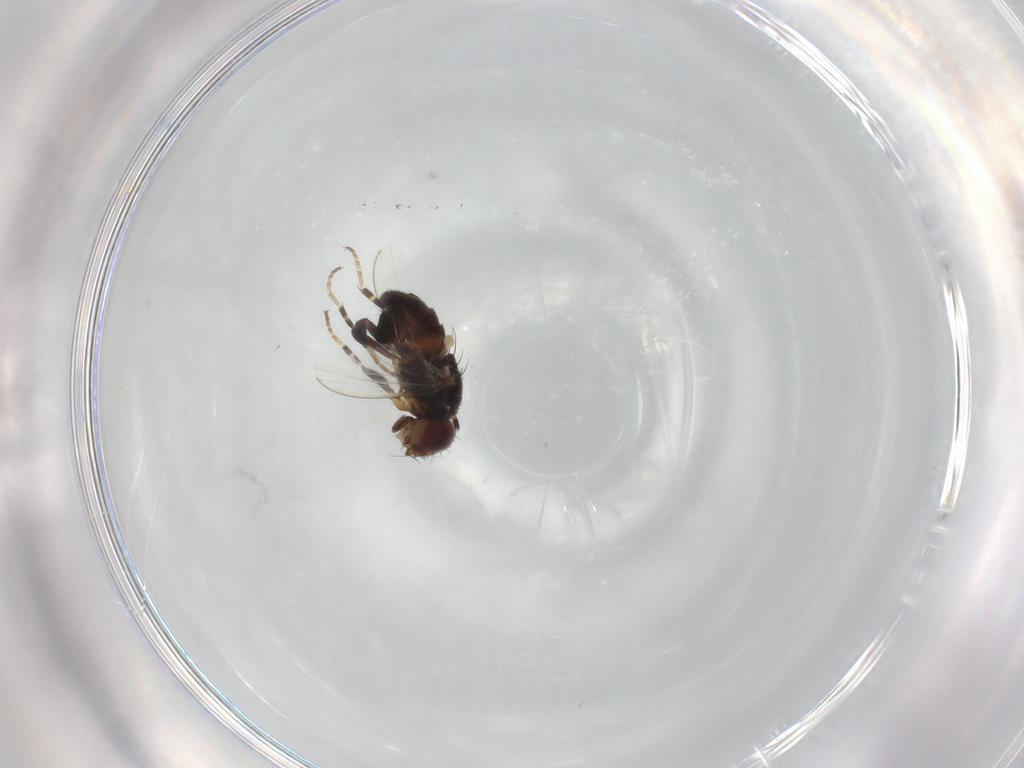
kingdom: Animalia
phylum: Arthropoda
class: Insecta
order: Diptera
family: Milichiidae
